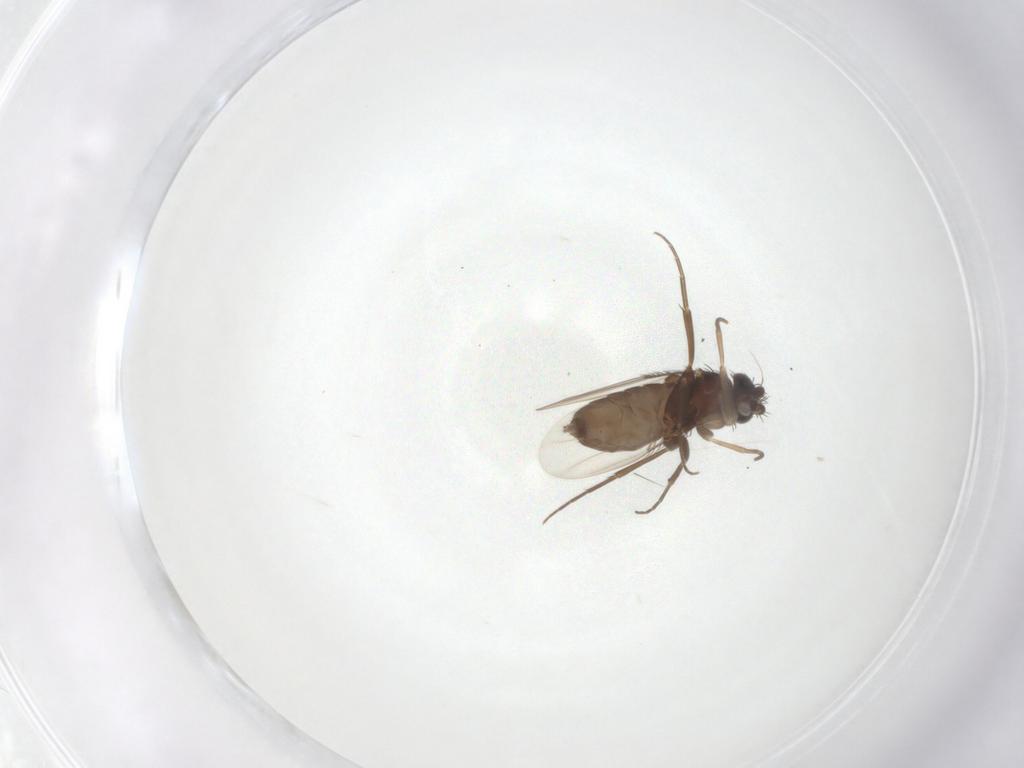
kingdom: Animalia
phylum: Arthropoda
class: Insecta
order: Diptera
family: Phoridae
